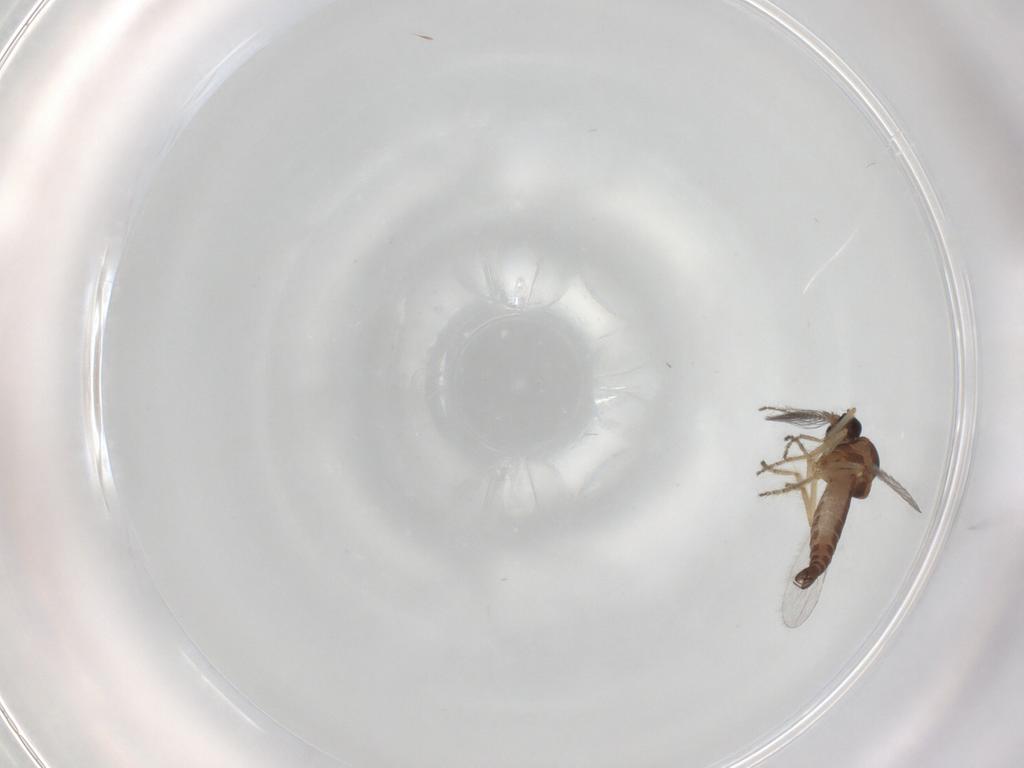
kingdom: Animalia
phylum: Arthropoda
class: Insecta
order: Diptera
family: Ceratopogonidae
